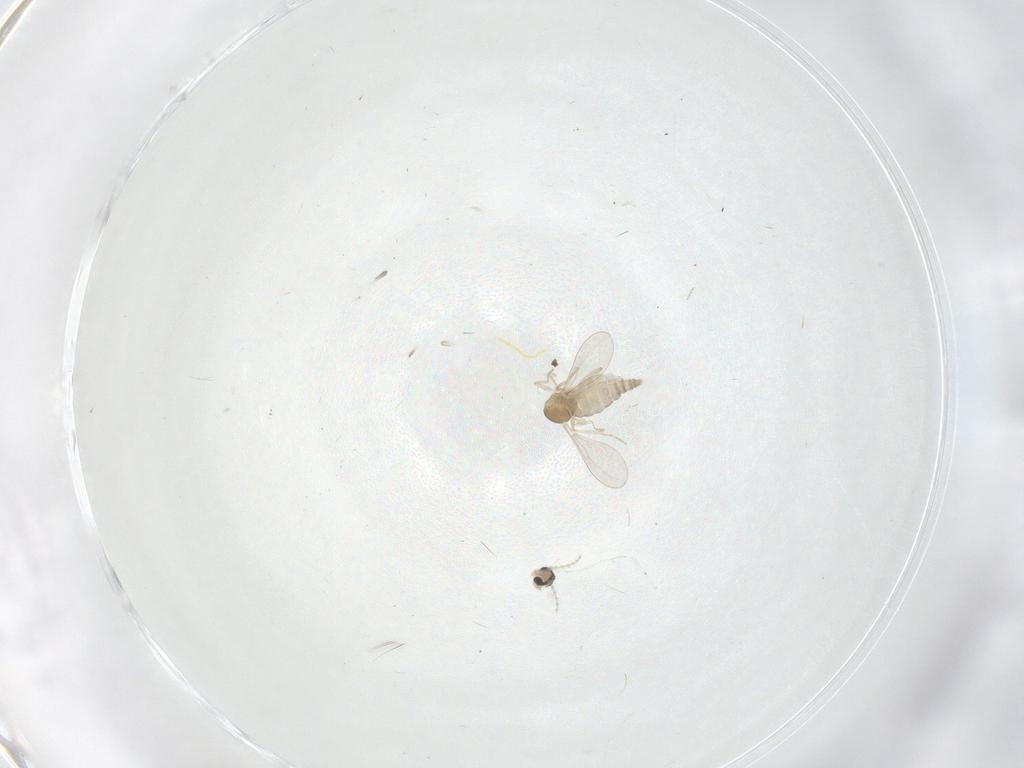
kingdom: Animalia
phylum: Arthropoda
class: Insecta
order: Diptera
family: Cecidomyiidae
